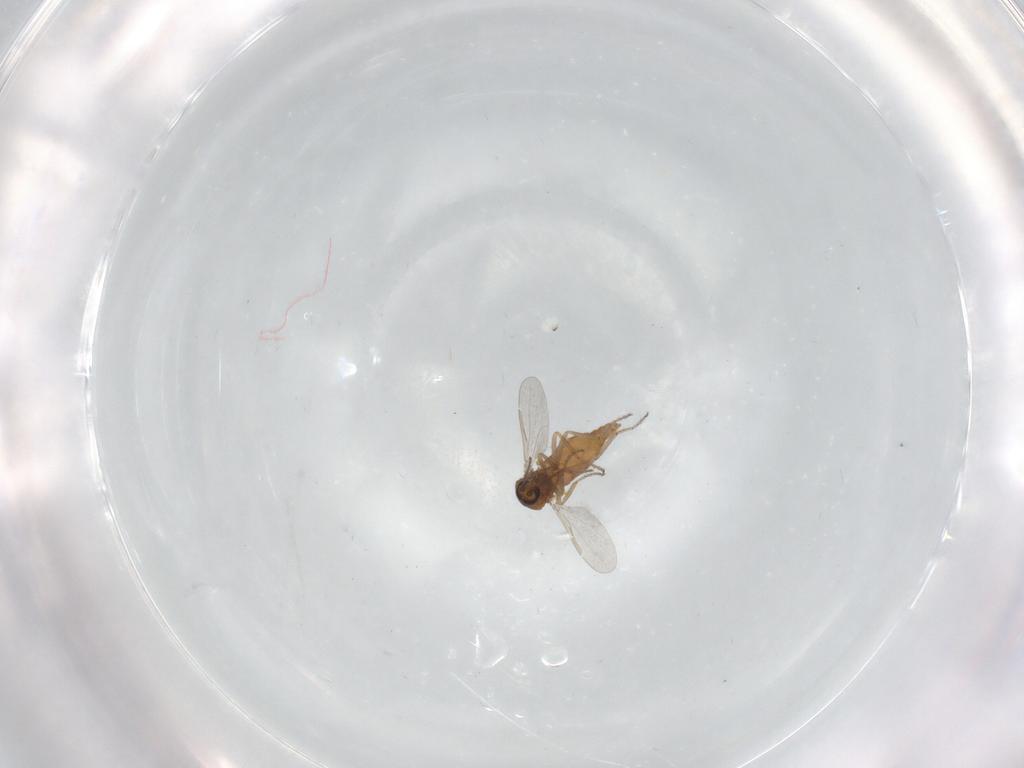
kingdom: Animalia
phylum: Arthropoda
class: Insecta
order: Diptera
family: Chironomidae
